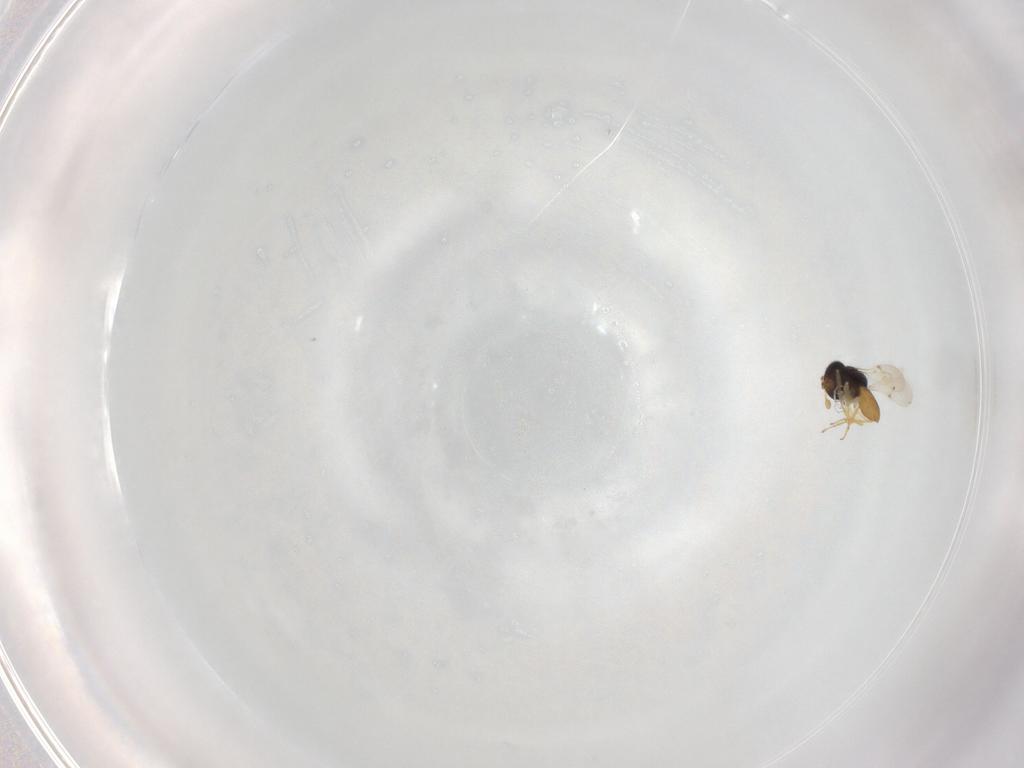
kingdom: Animalia
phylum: Arthropoda
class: Insecta
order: Hymenoptera
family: Scelionidae
